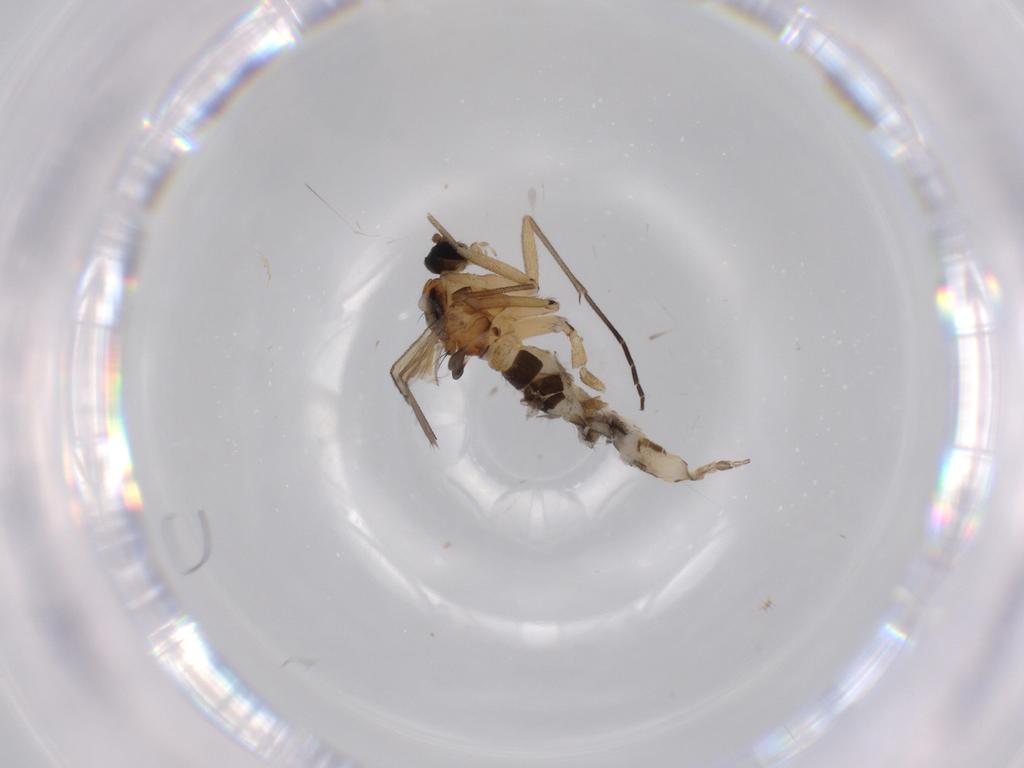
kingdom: Animalia
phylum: Arthropoda
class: Insecta
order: Diptera
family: Cecidomyiidae
